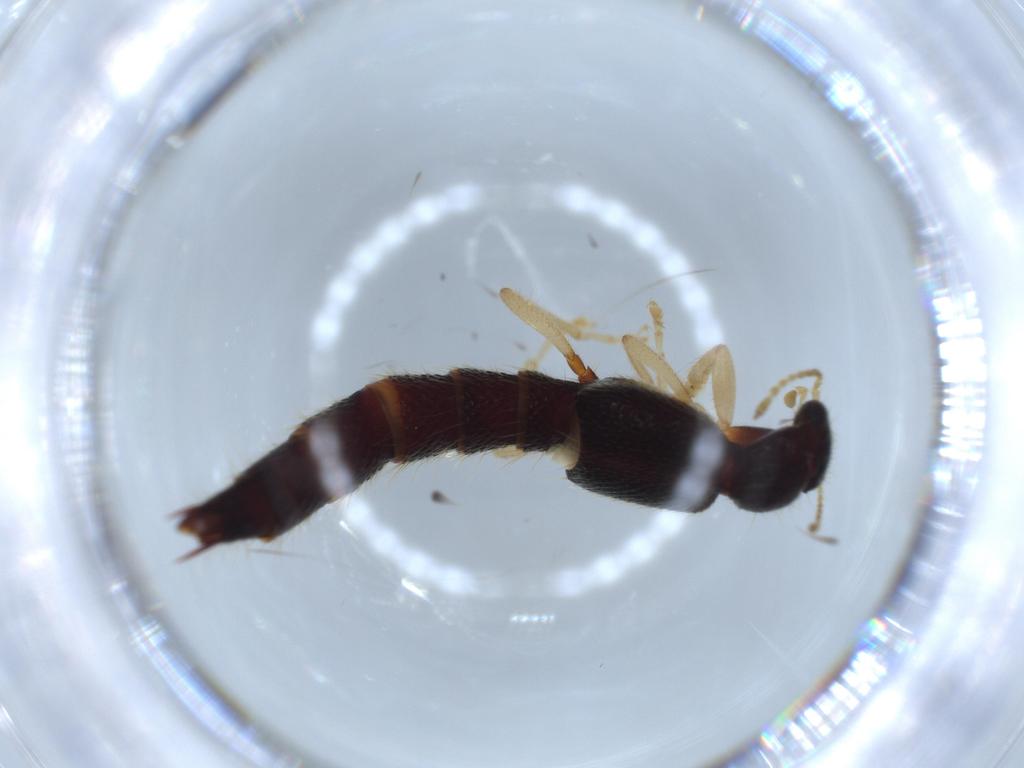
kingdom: Animalia
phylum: Arthropoda
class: Insecta
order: Coleoptera
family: Staphylinidae
